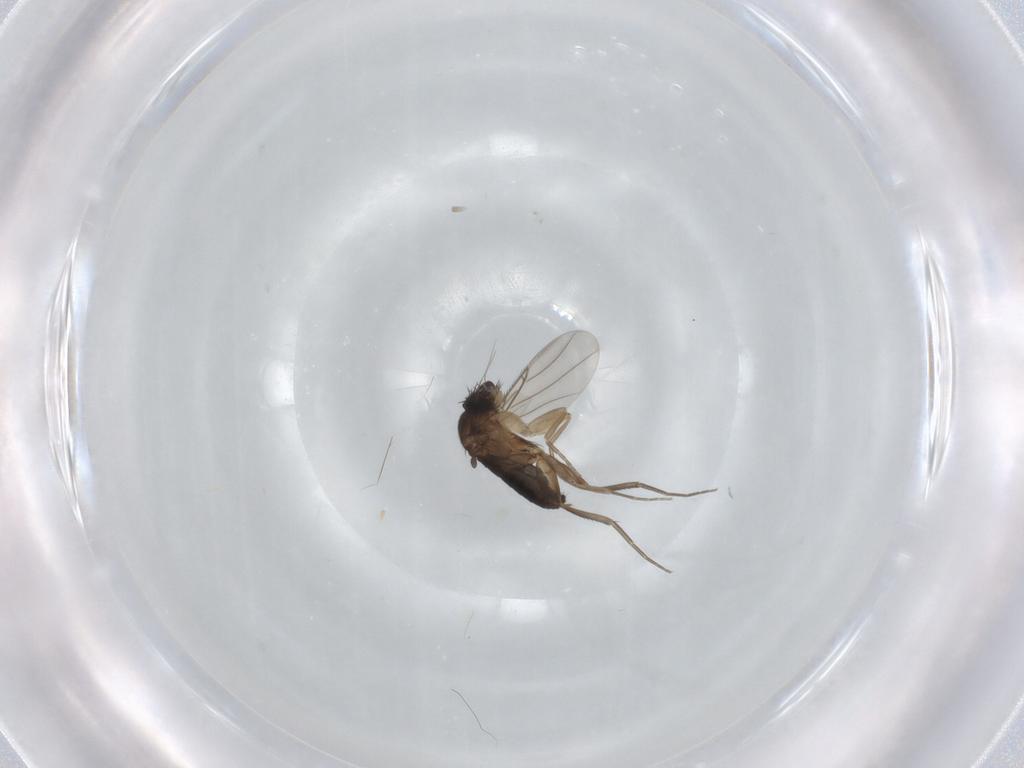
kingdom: Animalia
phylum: Arthropoda
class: Insecta
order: Diptera
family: Phoridae
